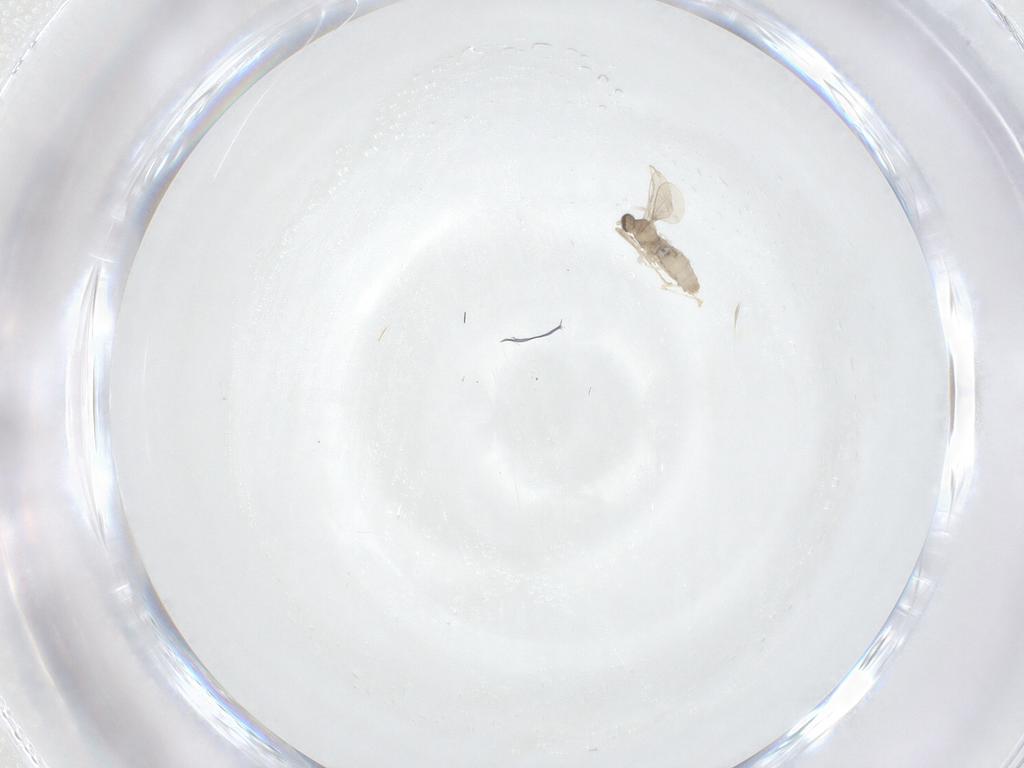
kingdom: Animalia
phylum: Arthropoda
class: Insecta
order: Diptera
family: Cecidomyiidae
